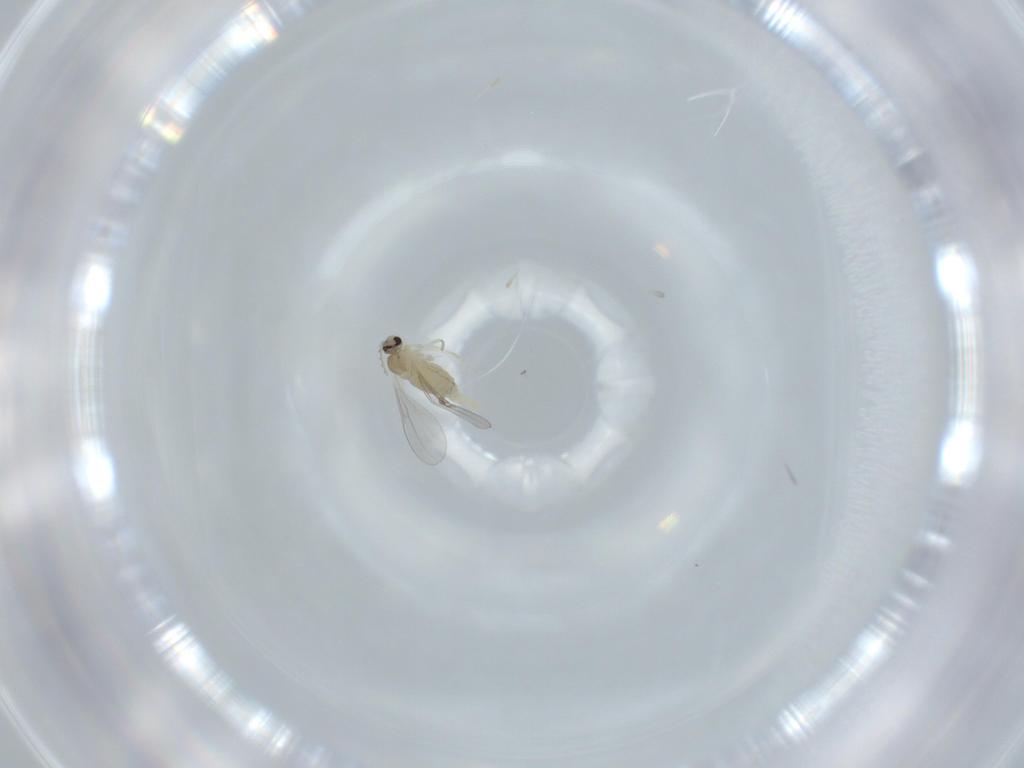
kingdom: Animalia
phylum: Arthropoda
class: Insecta
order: Diptera
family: Cecidomyiidae
